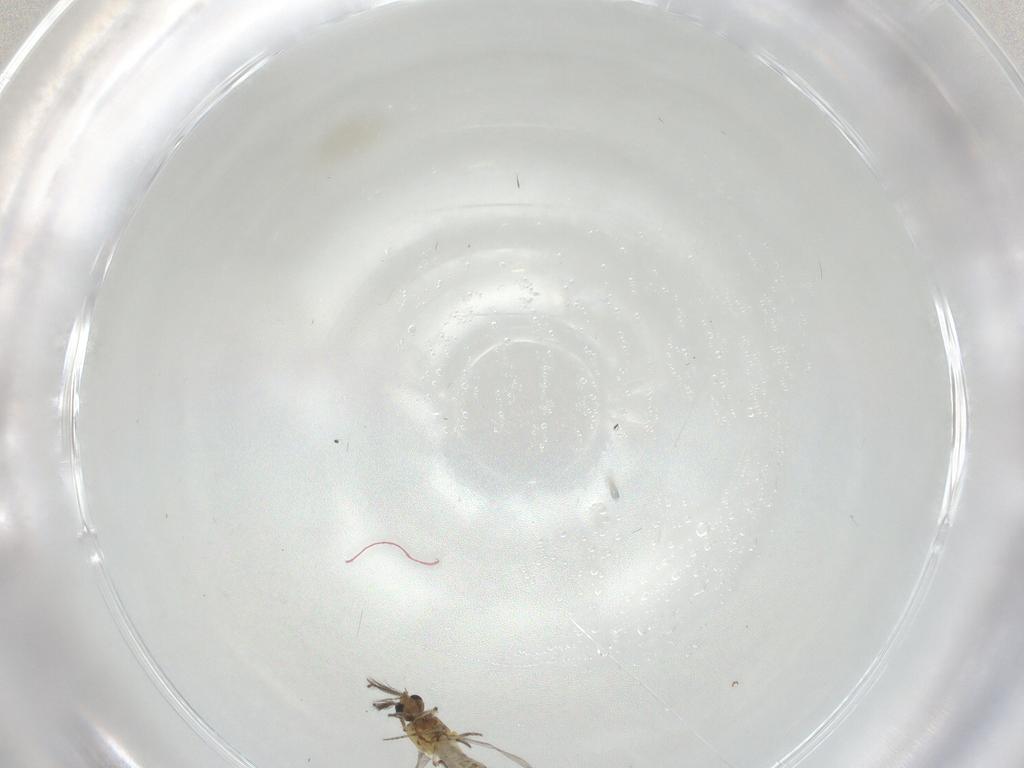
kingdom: Animalia
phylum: Arthropoda
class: Insecta
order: Diptera
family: Ceratopogonidae
